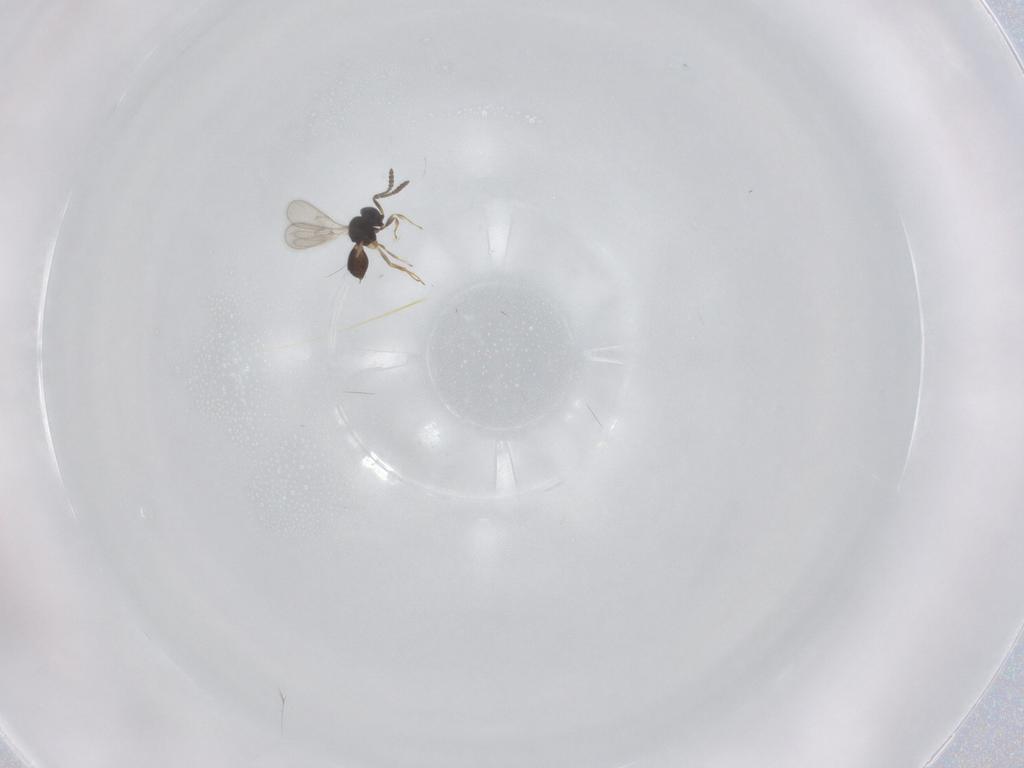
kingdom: Animalia
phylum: Arthropoda
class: Insecta
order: Hymenoptera
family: Scelionidae
